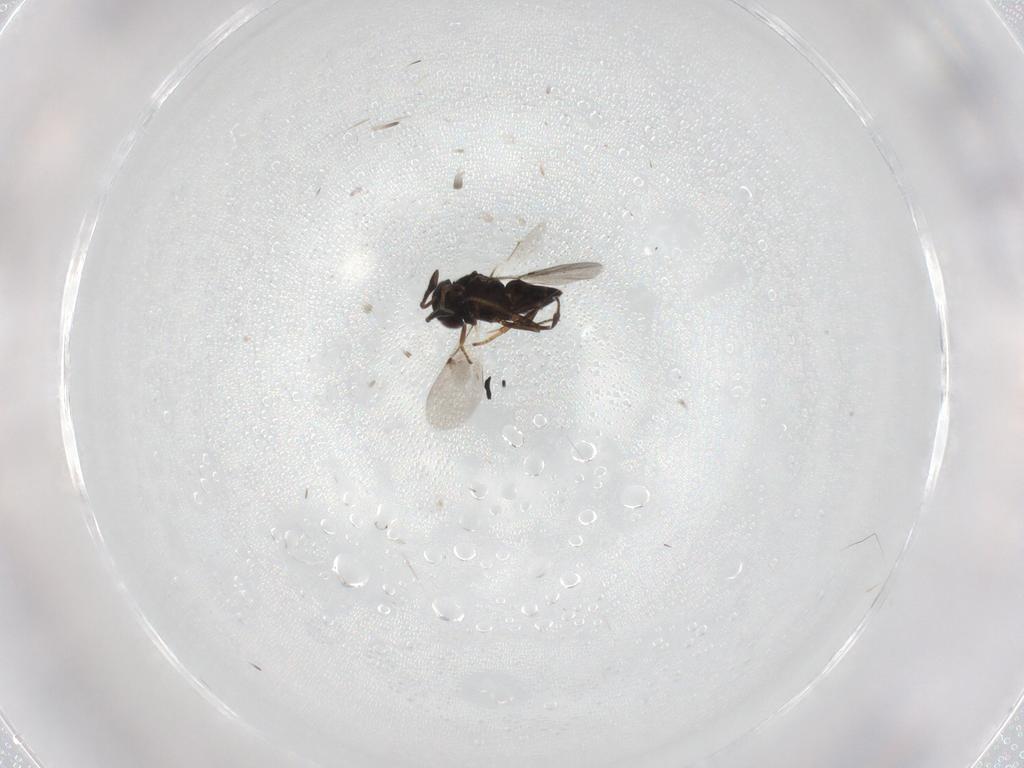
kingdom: Animalia
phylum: Arthropoda
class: Insecta
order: Hymenoptera
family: Encyrtidae
